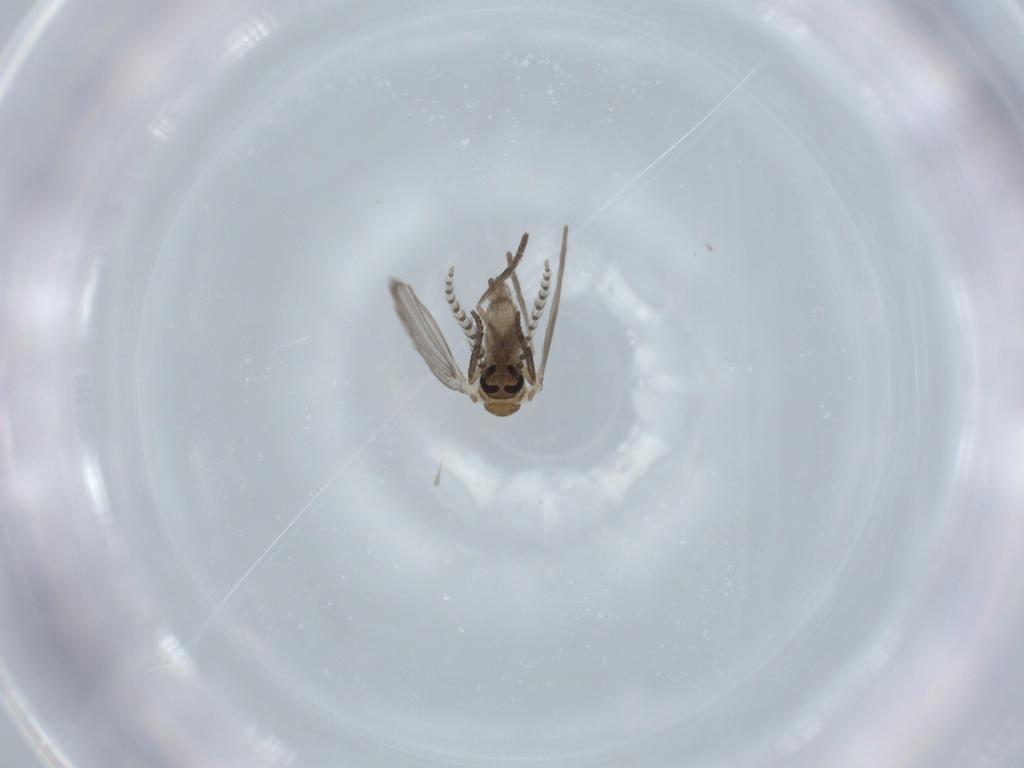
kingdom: Animalia
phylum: Arthropoda
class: Insecta
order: Diptera
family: Psychodidae
